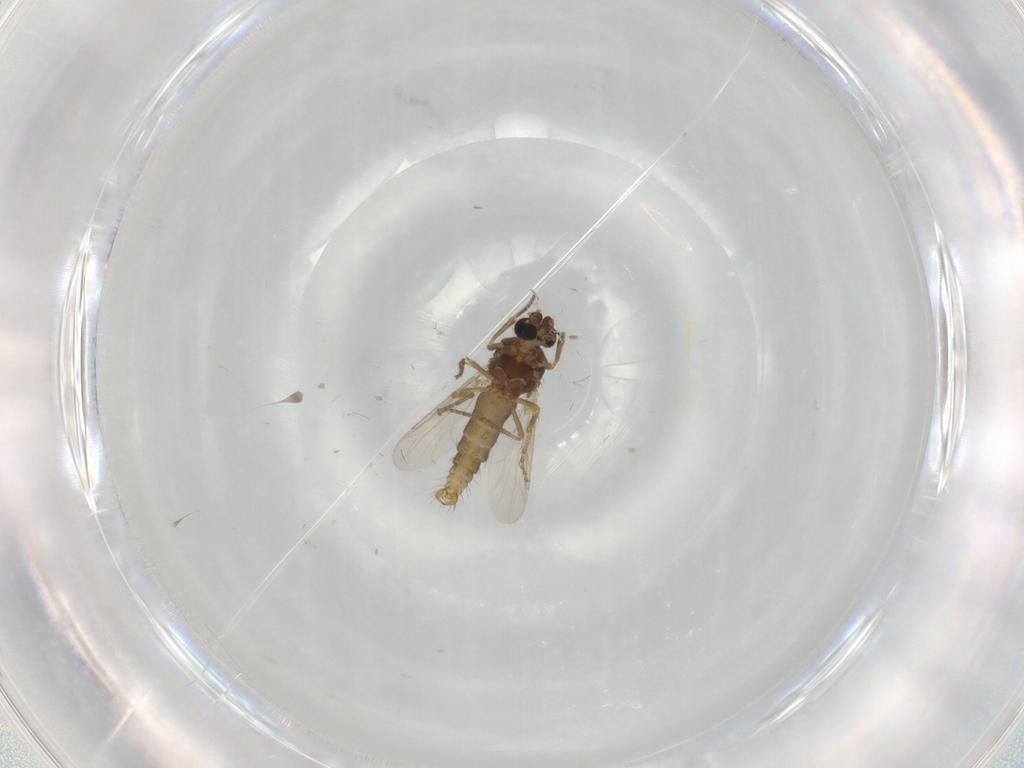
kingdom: Animalia
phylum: Arthropoda
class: Insecta
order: Diptera
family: Ceratopogonidae
